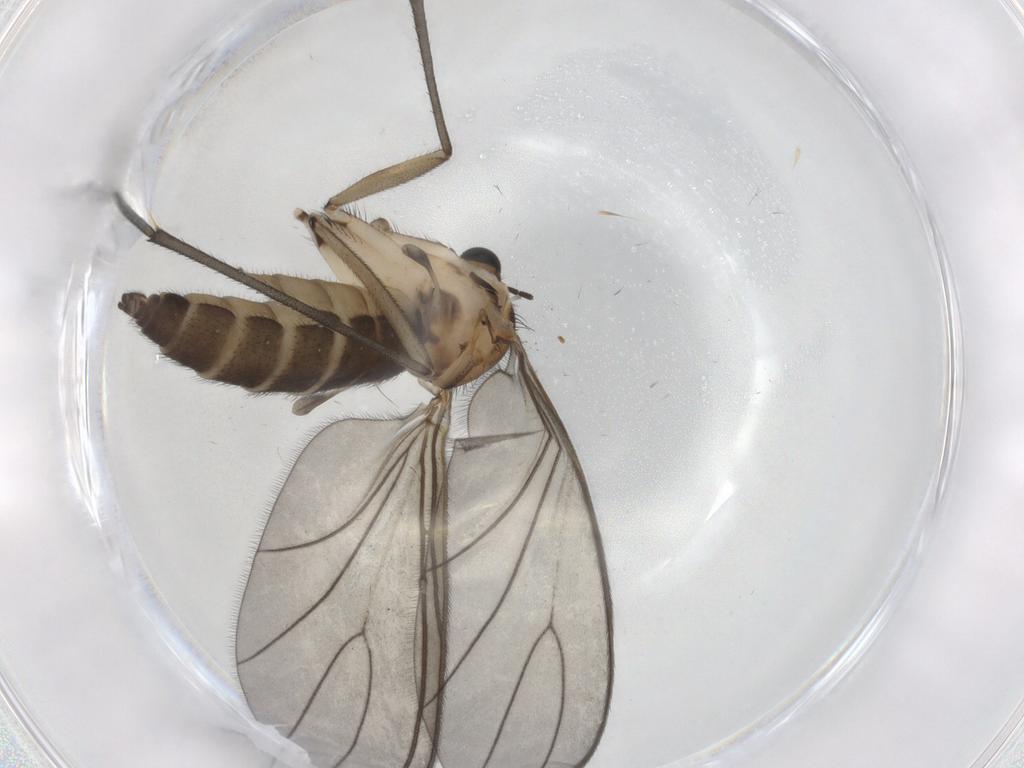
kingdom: Animalia
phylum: Arthropoda
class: Insecta
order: Diptera
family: Sciaridae
